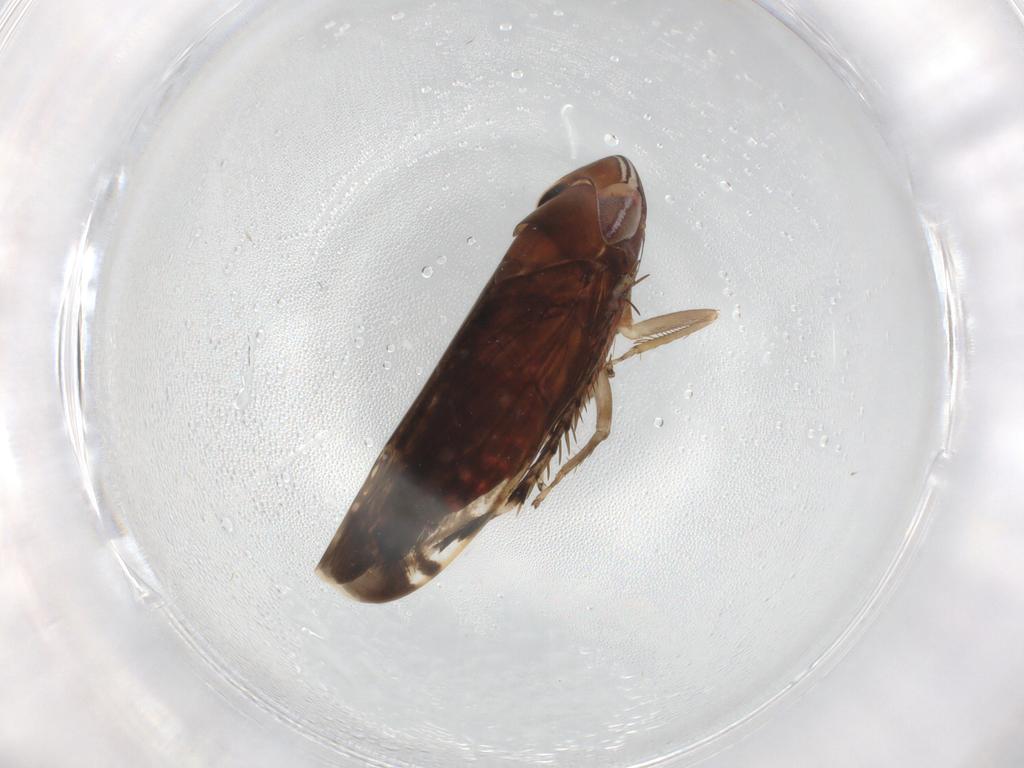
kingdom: Animalia
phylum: Arthropoda
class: Insecta
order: Hemiptera
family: Cicadellidae
